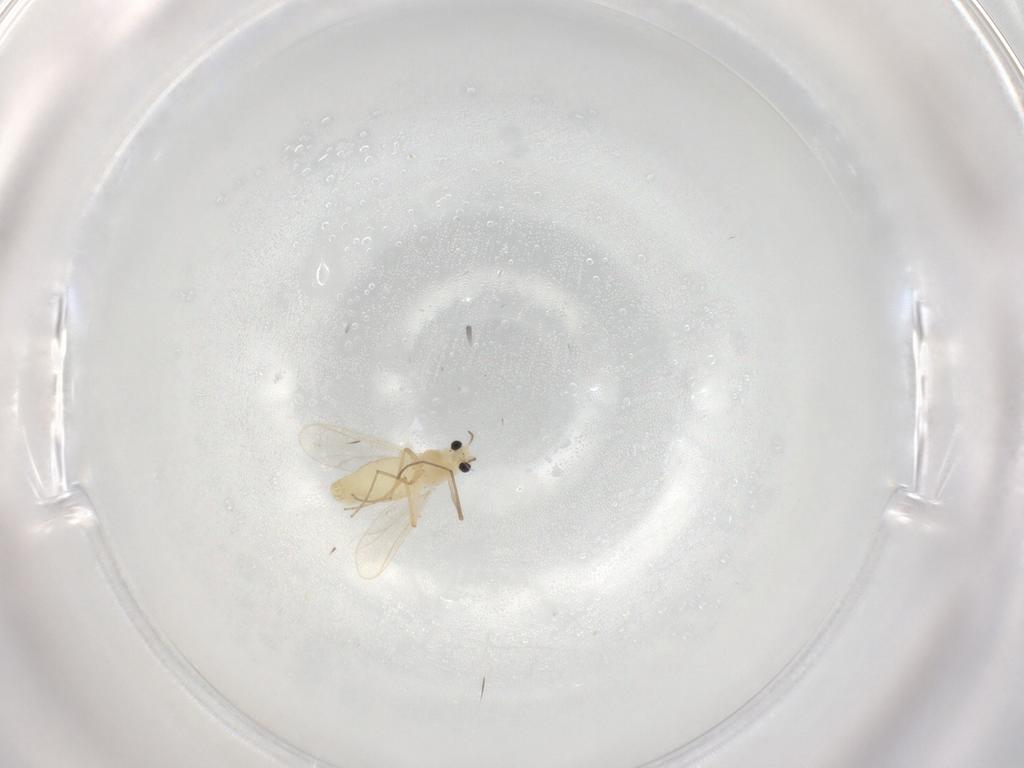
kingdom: Animalia
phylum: Arthropoda
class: Insecta
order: Diptera
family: Chironomidae
